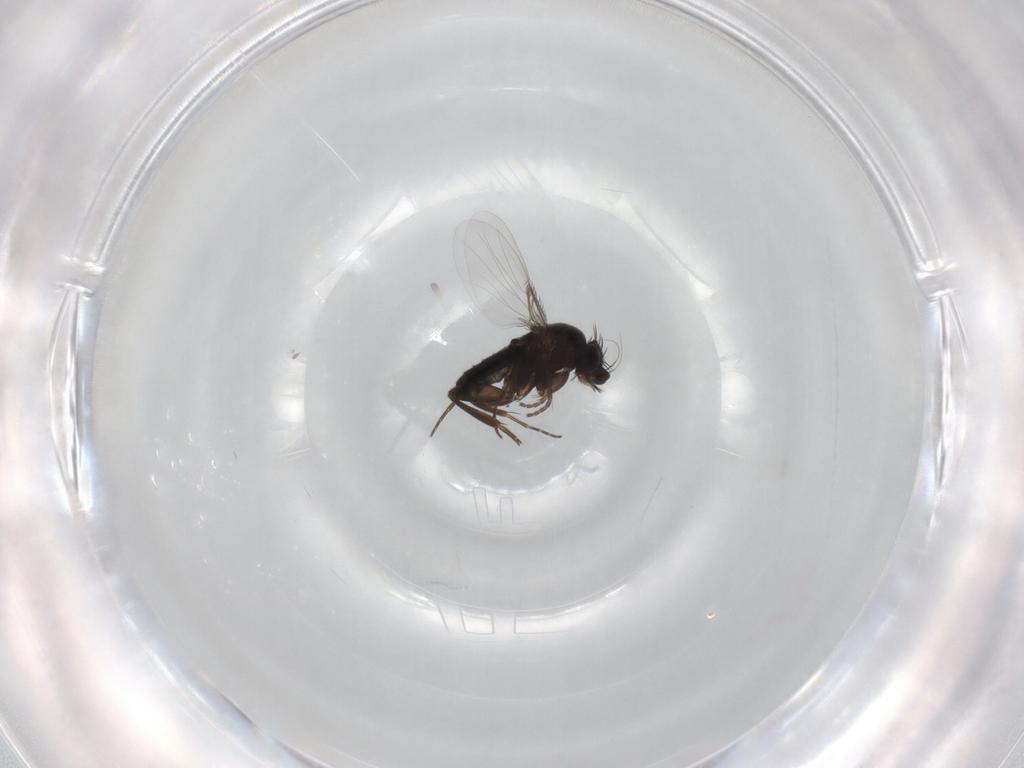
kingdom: Animalia
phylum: Arthropoda
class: Insecta
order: Diptera
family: Phoridae
